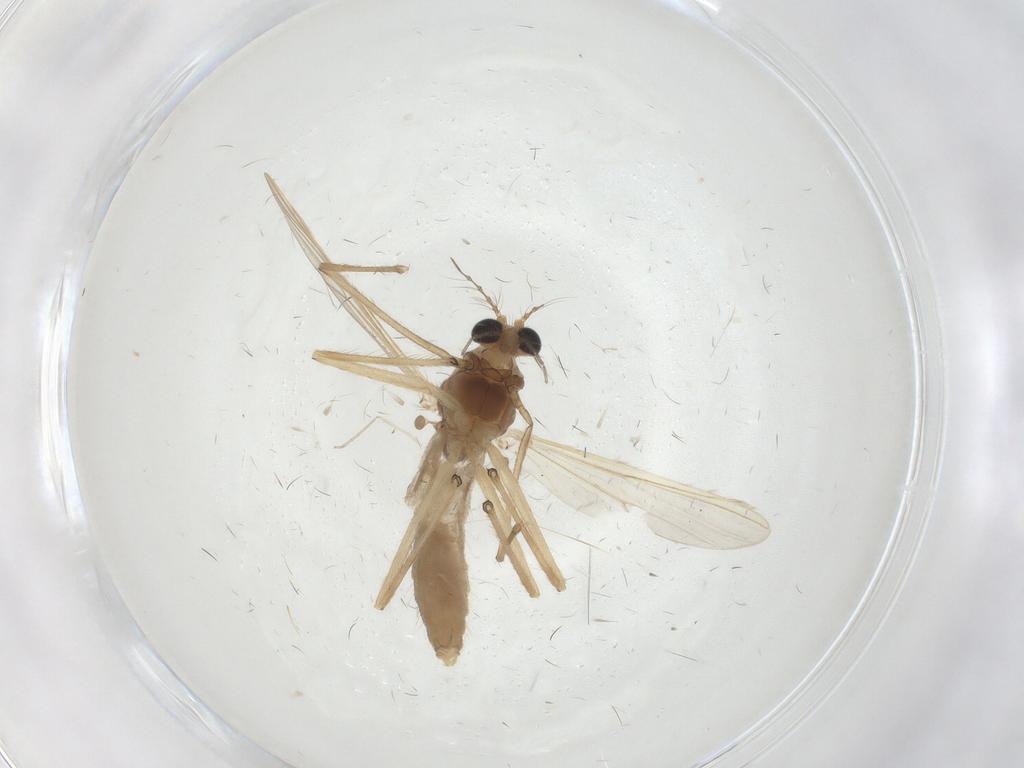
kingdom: Animalia
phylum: Arthropoda
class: Insecta
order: Diptera
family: Chironomidae
